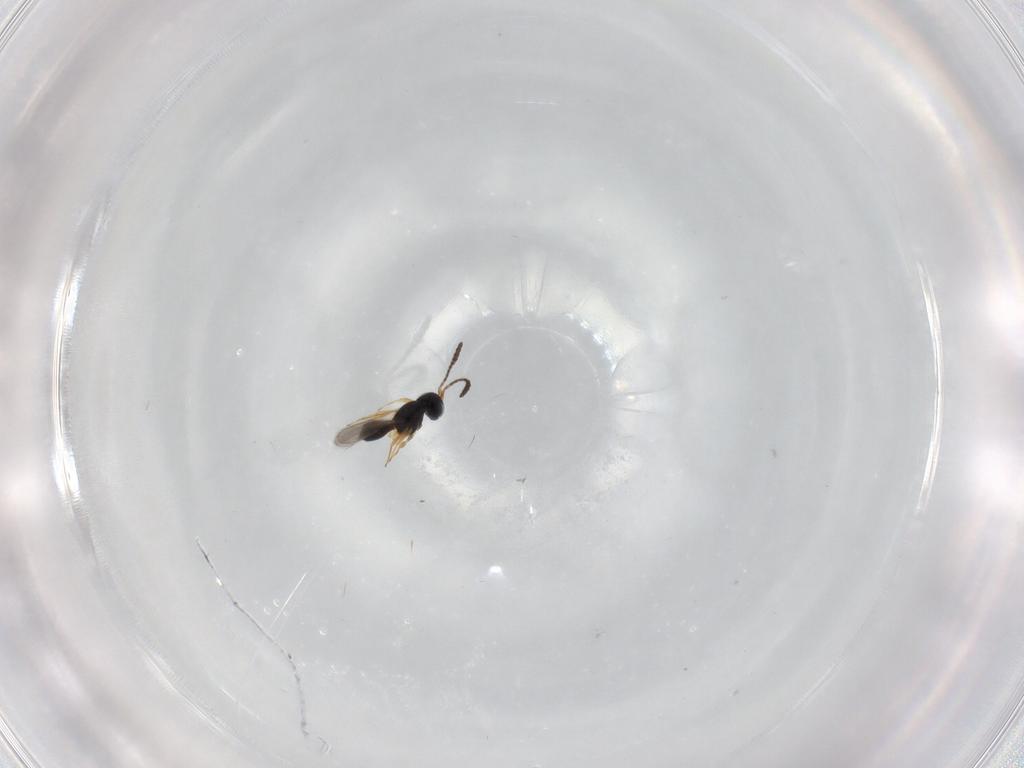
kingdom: Animalia
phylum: Arthropoda
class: Insecta
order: Hymenoptera
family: Scelionidae
